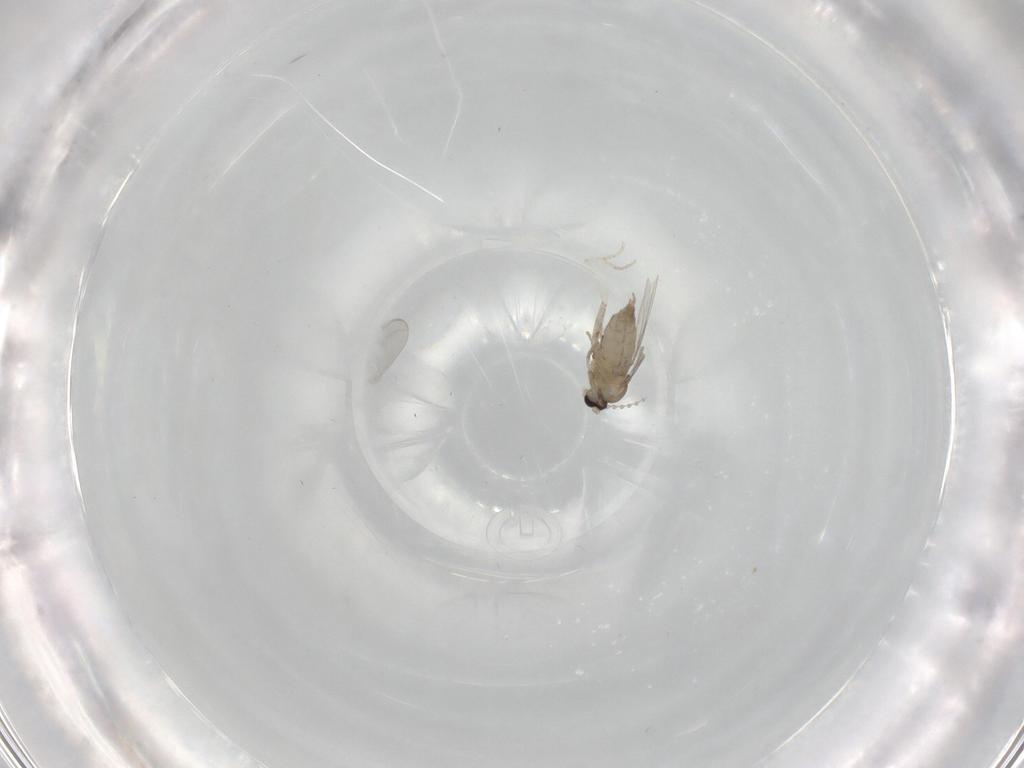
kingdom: Animalia
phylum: Arthropoda
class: Insecta
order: Diptera
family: Cecidomyiidae
